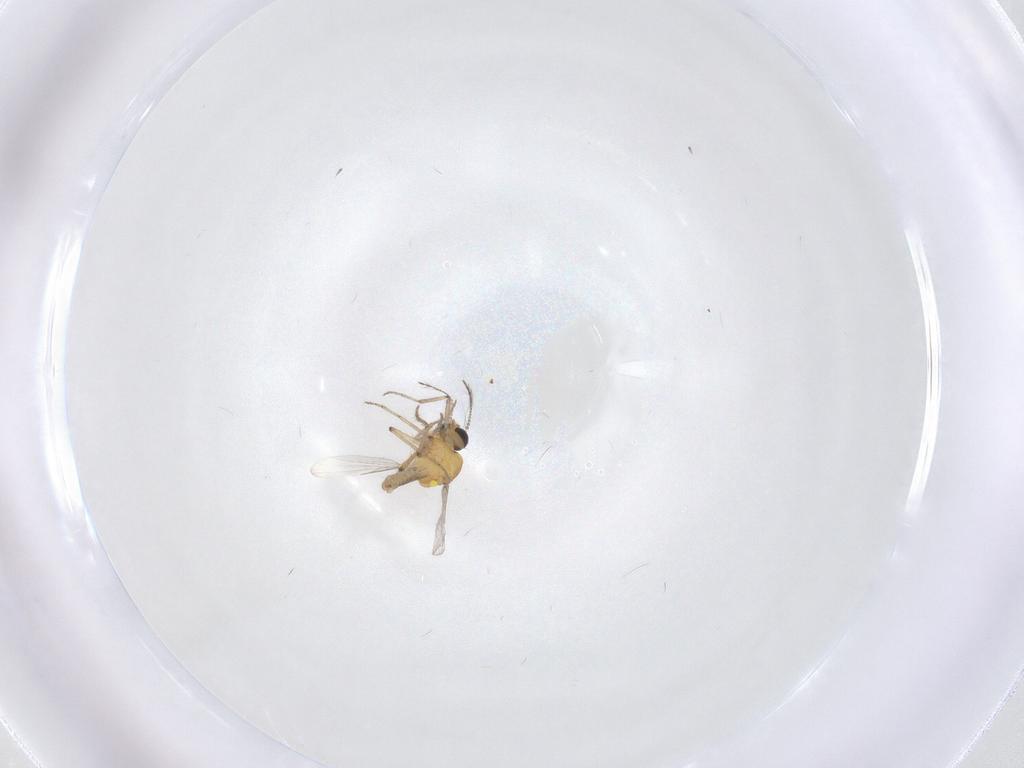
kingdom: Animalia
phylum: Arthropoda
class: Insecta
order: Diptera
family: Ceratopogonidae
